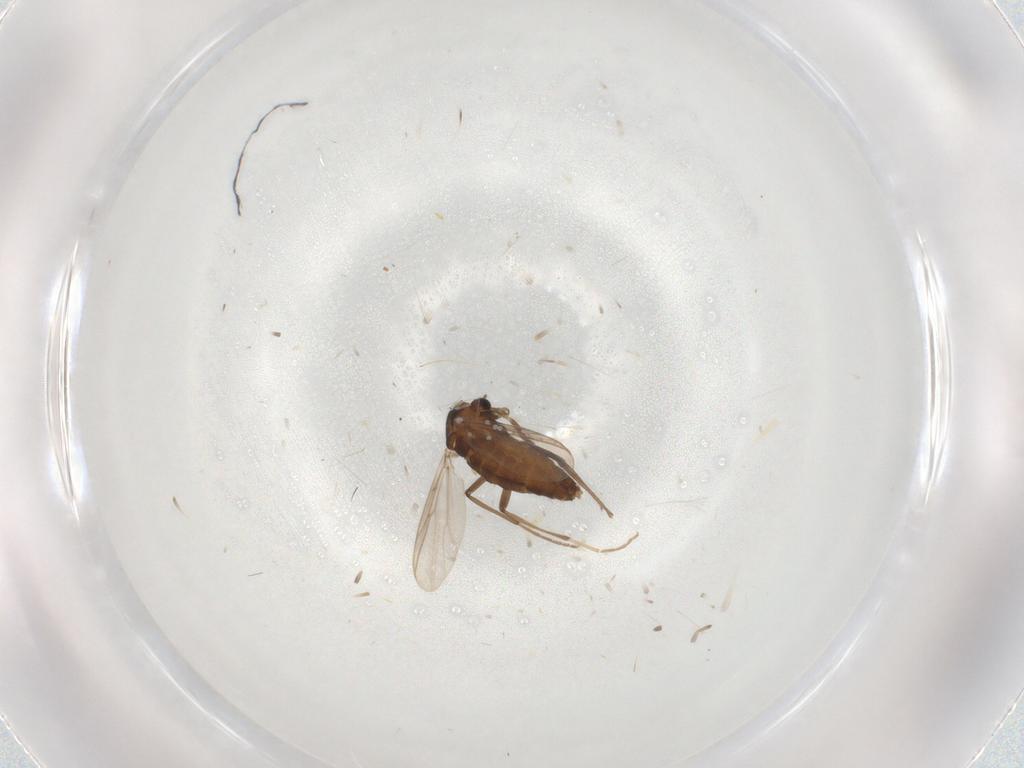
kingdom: Animalia
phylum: Arthropoda
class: Insecta
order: Diptera
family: Chironomidae
